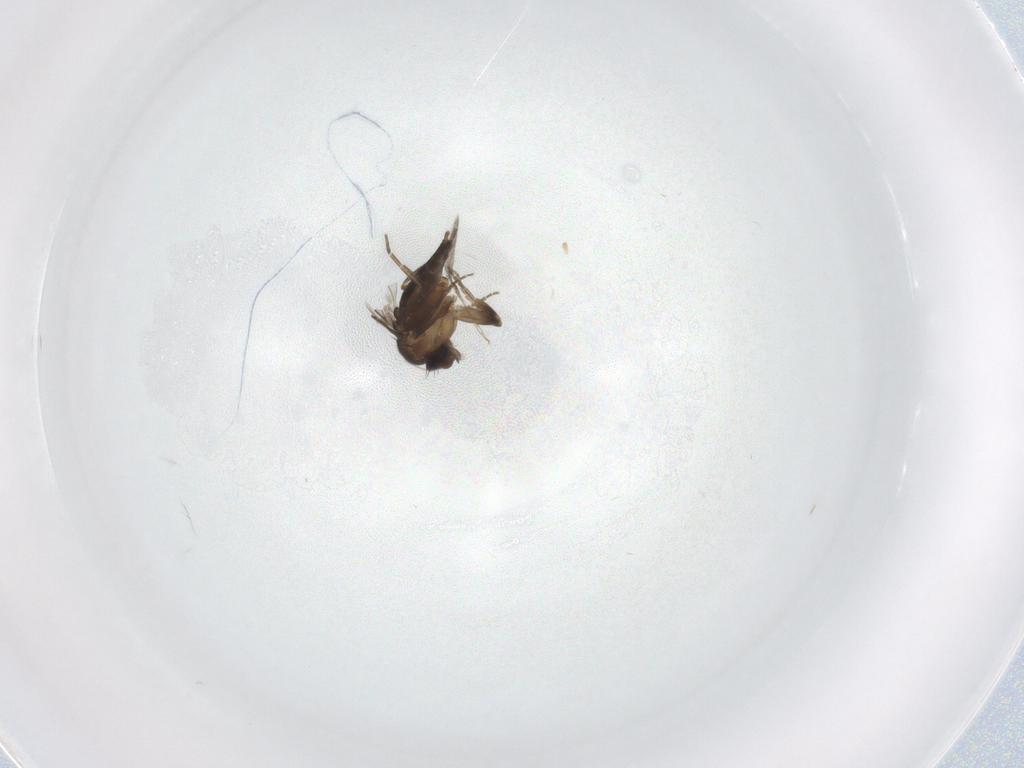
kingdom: Animalia
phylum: Arthropoda
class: Insecta
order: Diptera
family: Phoridae
